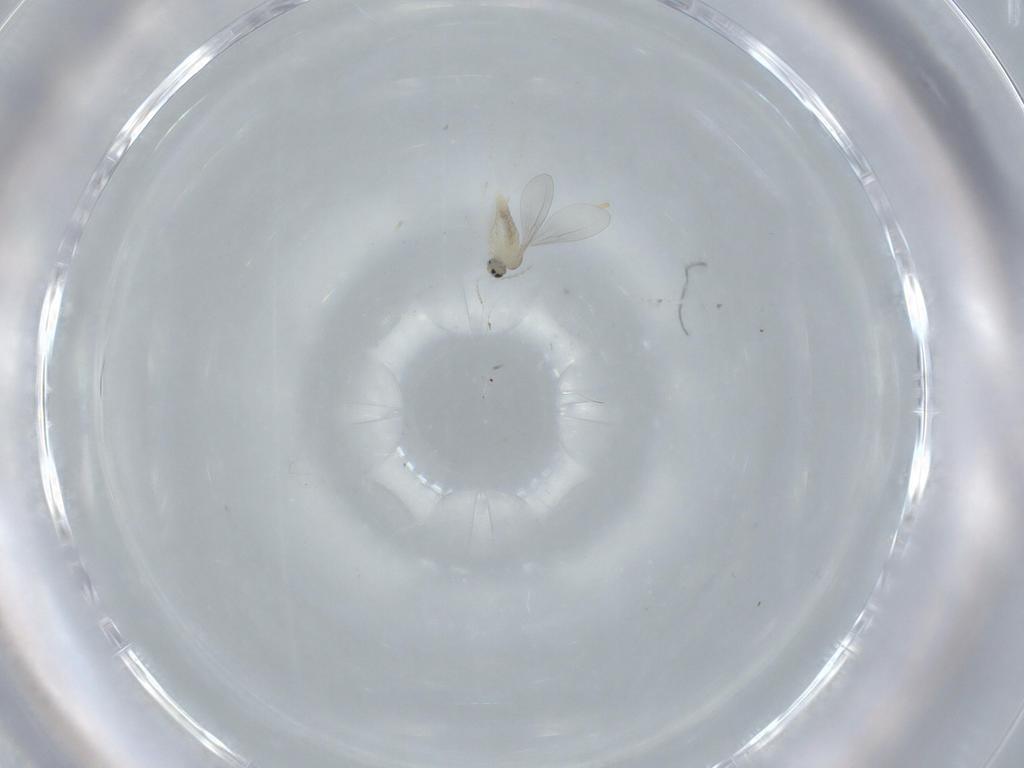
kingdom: Animalia
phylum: Arthropoda
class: Insecta
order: Diptera
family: Cecidomyiidae
